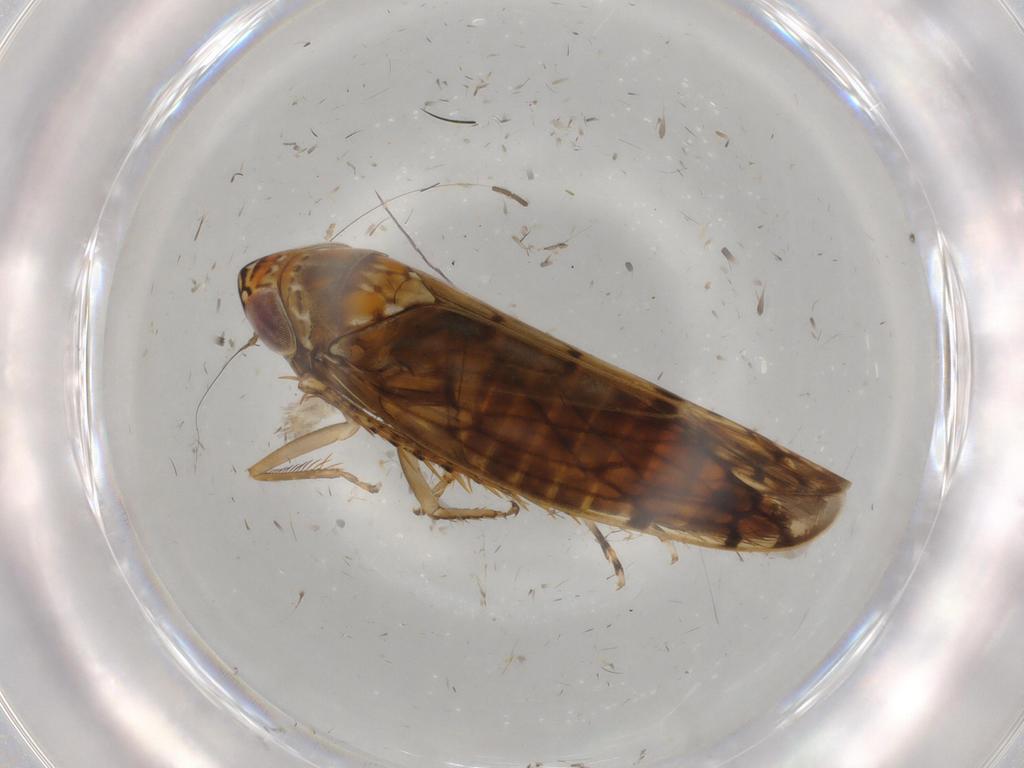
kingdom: Animalia
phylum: Arthropoda
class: Insecta
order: Hemiptera
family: Cicadellidae
